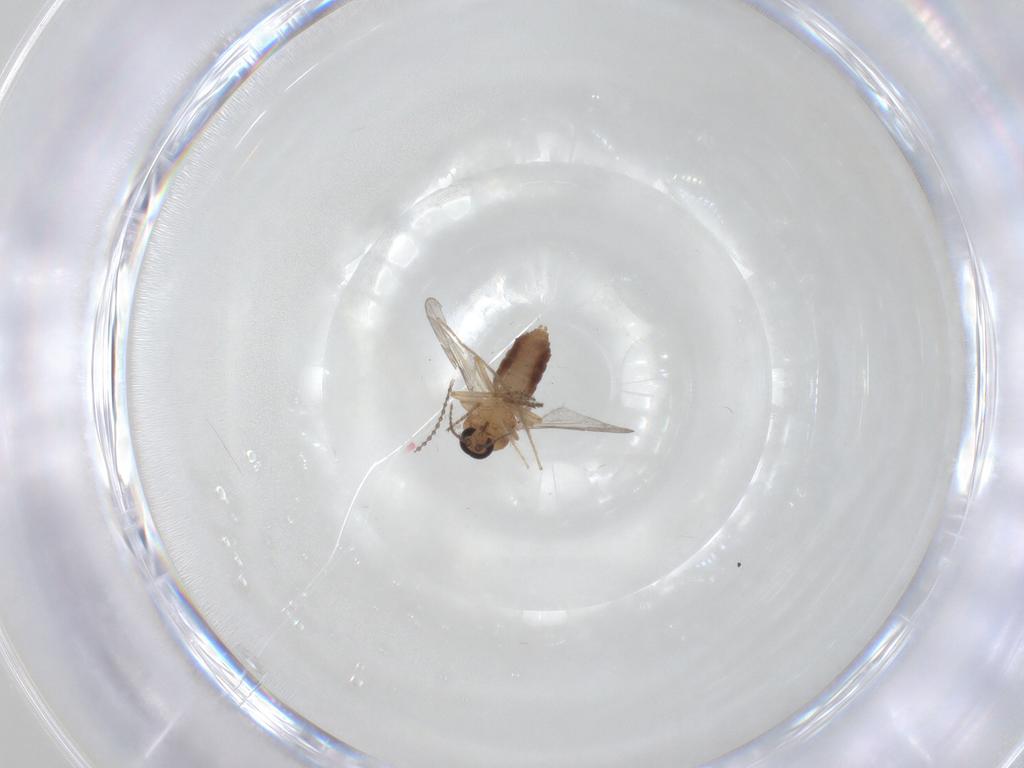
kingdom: Animalia
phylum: Arthropoda
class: Insecta
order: Diptera
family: Ceratopogonidae
